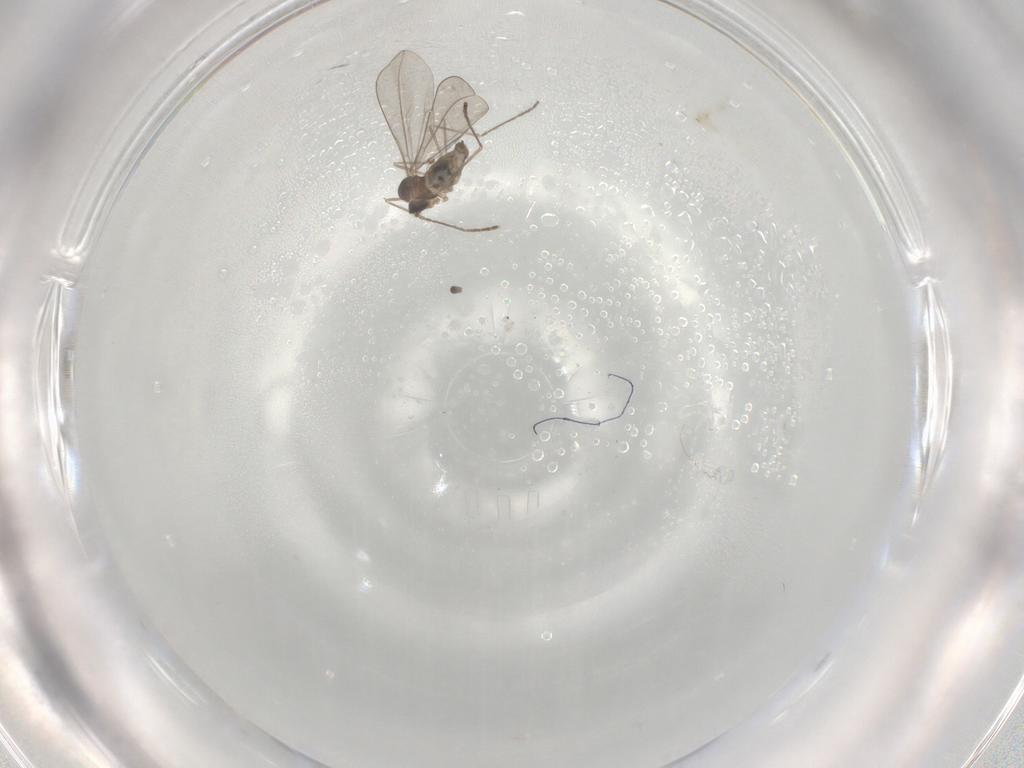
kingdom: Animalia
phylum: Arthropoda
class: Insecta
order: Diptera
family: Cecidomyiidae
